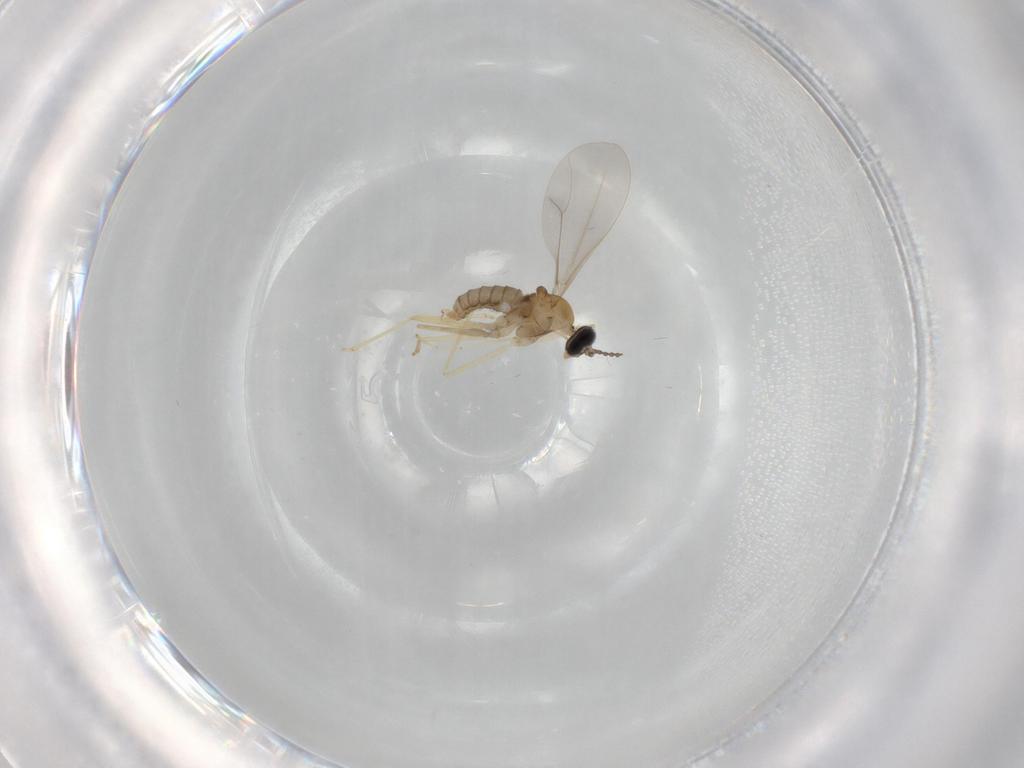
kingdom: Animalia
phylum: Arthropoda
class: Insecta
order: Diptera
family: Cecidomyiidae
